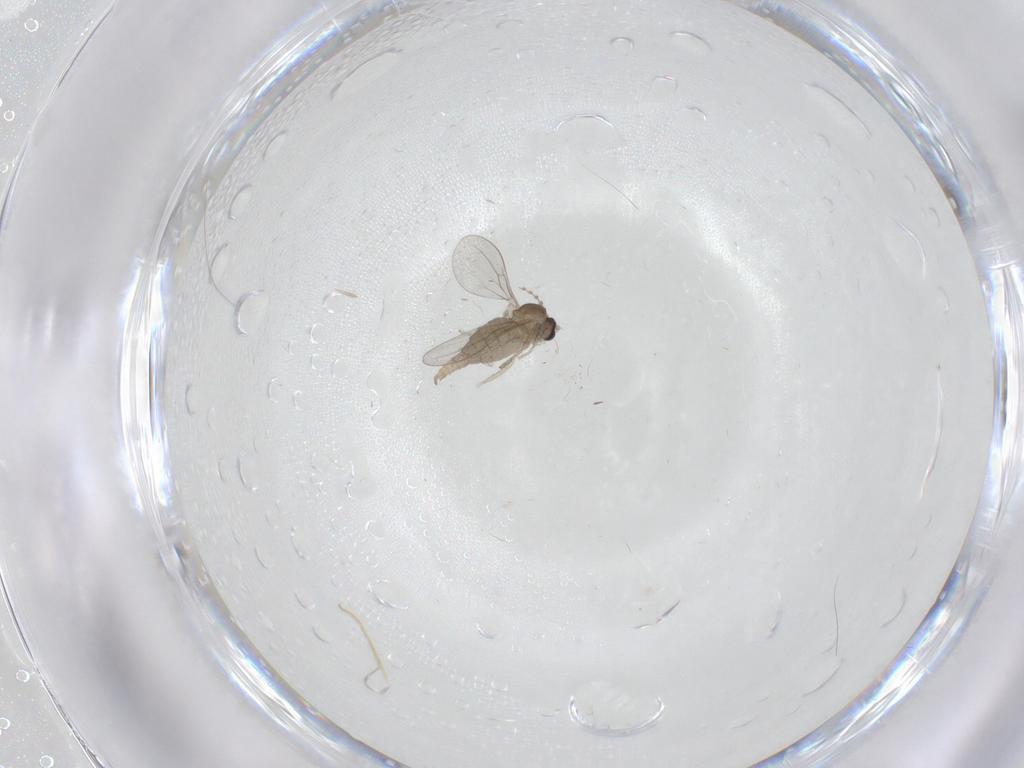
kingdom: Animalia
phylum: Arthropoda
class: Insecta
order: Diptera
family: Cecidomyiidae
